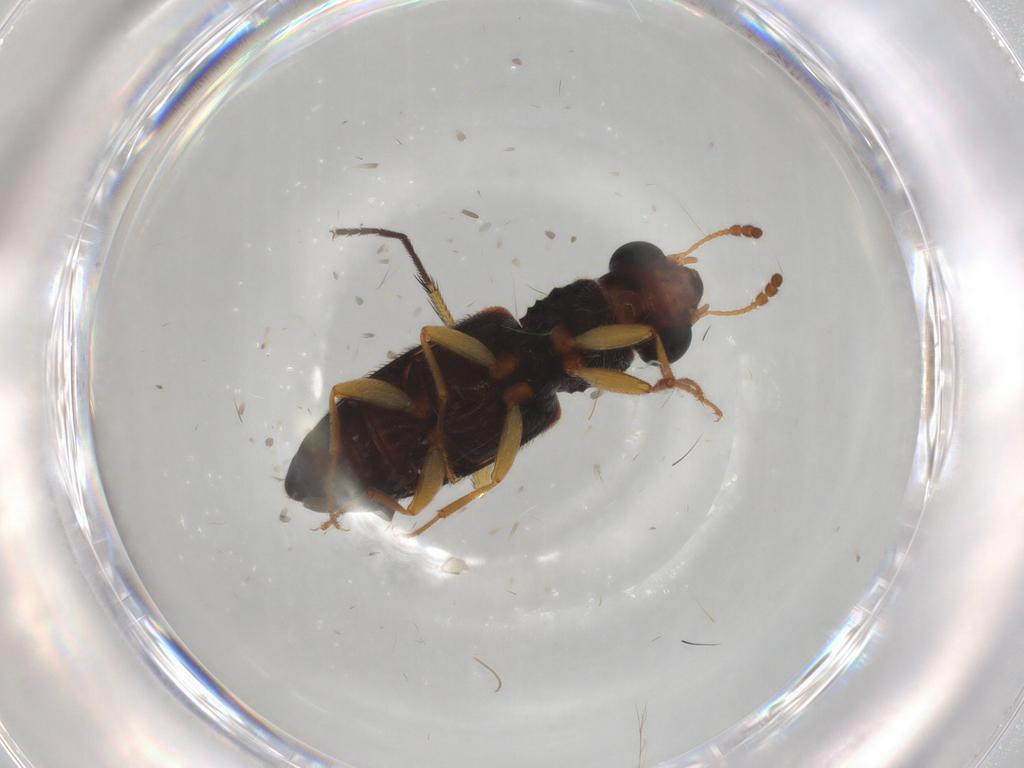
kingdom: Animalia
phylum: Arthropoda
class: Insecta
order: Coleoptera
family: Salpingidae
